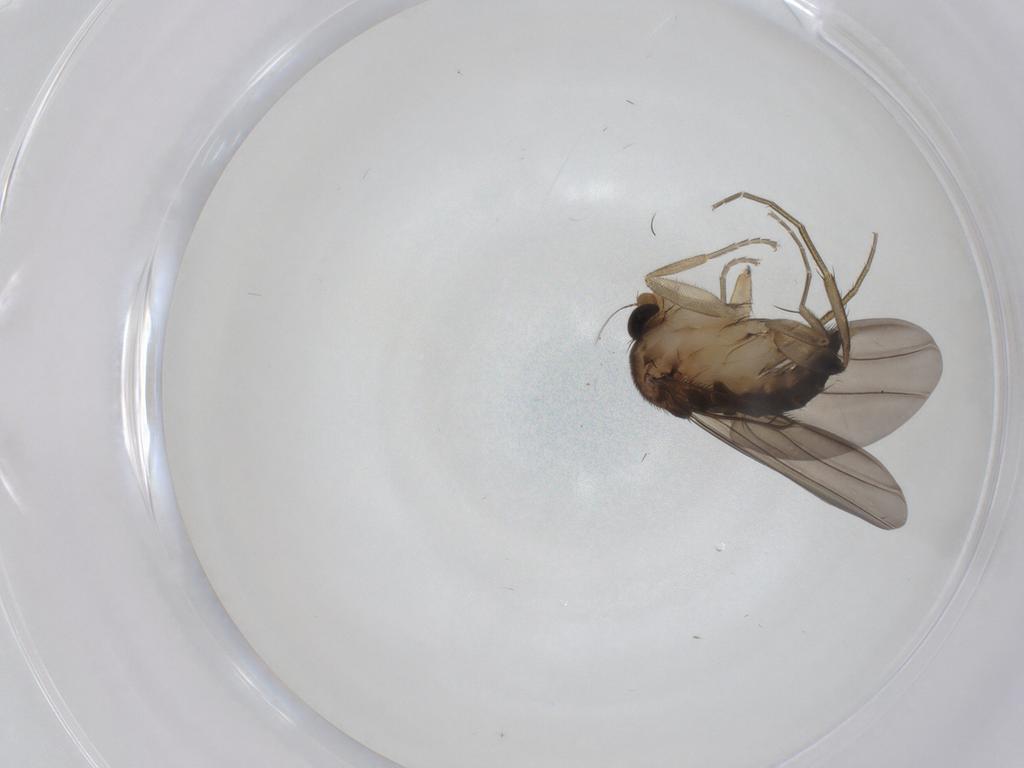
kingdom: Animalia
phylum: Arthropoda
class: Insecta
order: Diptera
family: Phoridae
